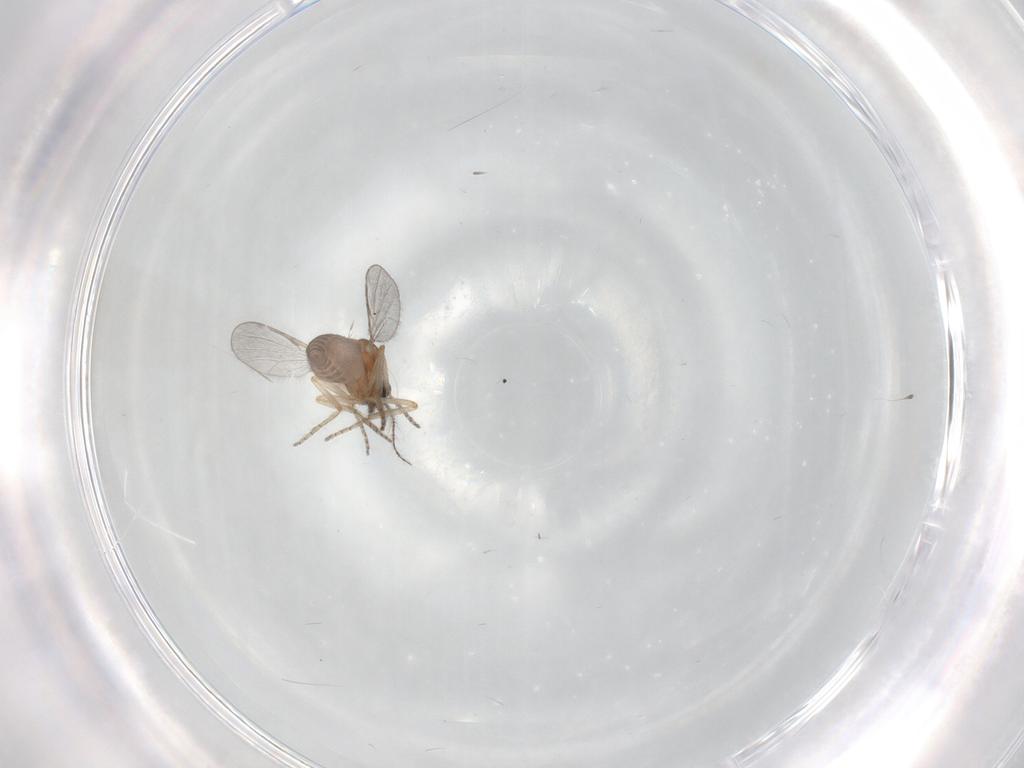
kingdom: Animalia
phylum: Arthropoda
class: Insecta
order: Diptera
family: Ceratopogonidae
